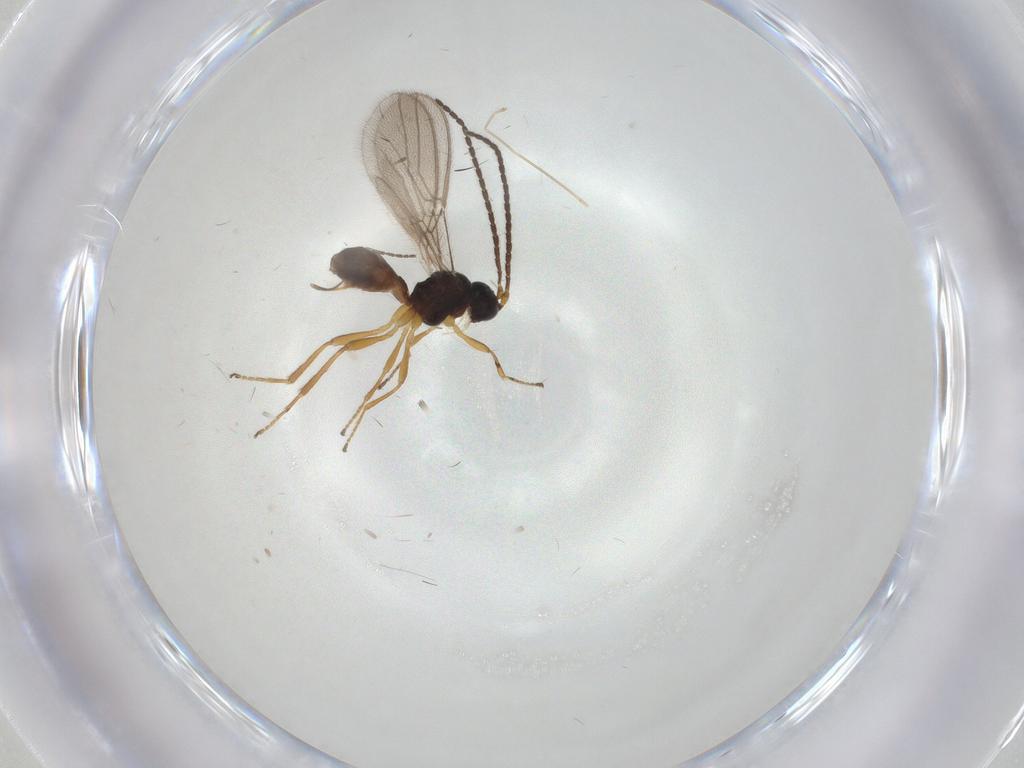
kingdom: Animalia
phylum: Arthropoda
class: Insecta
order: Hymenoptera
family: Braconidae
